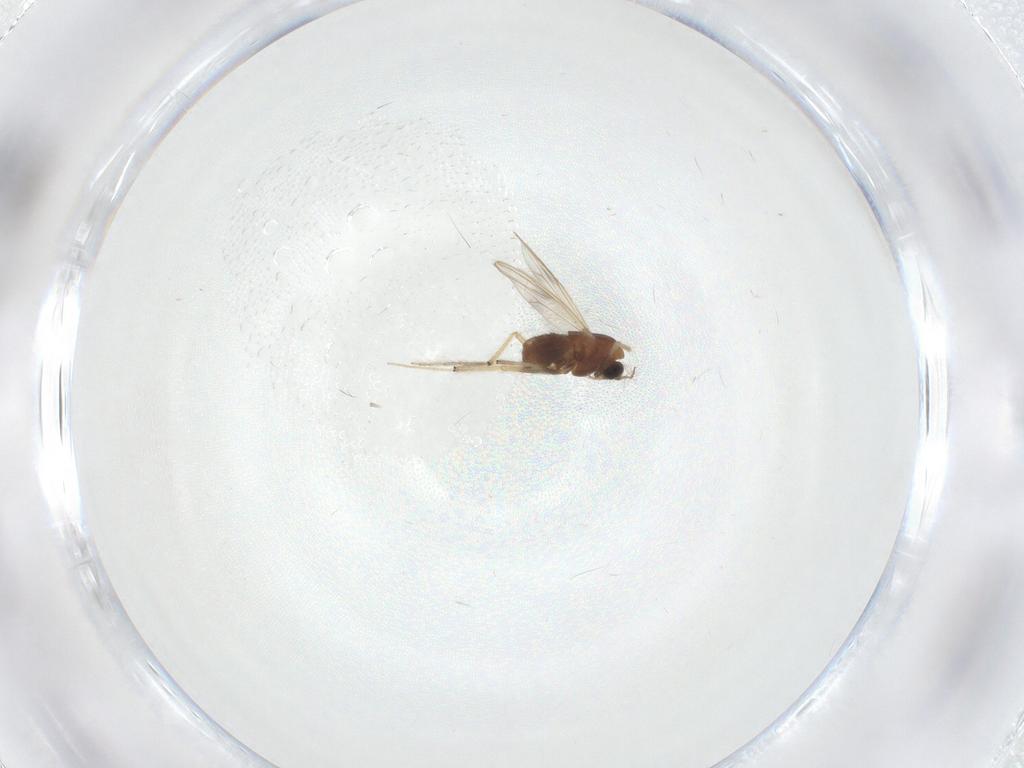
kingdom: Animalia
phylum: Arthropoda
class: Insecta
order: Diptera
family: Chironomidae
